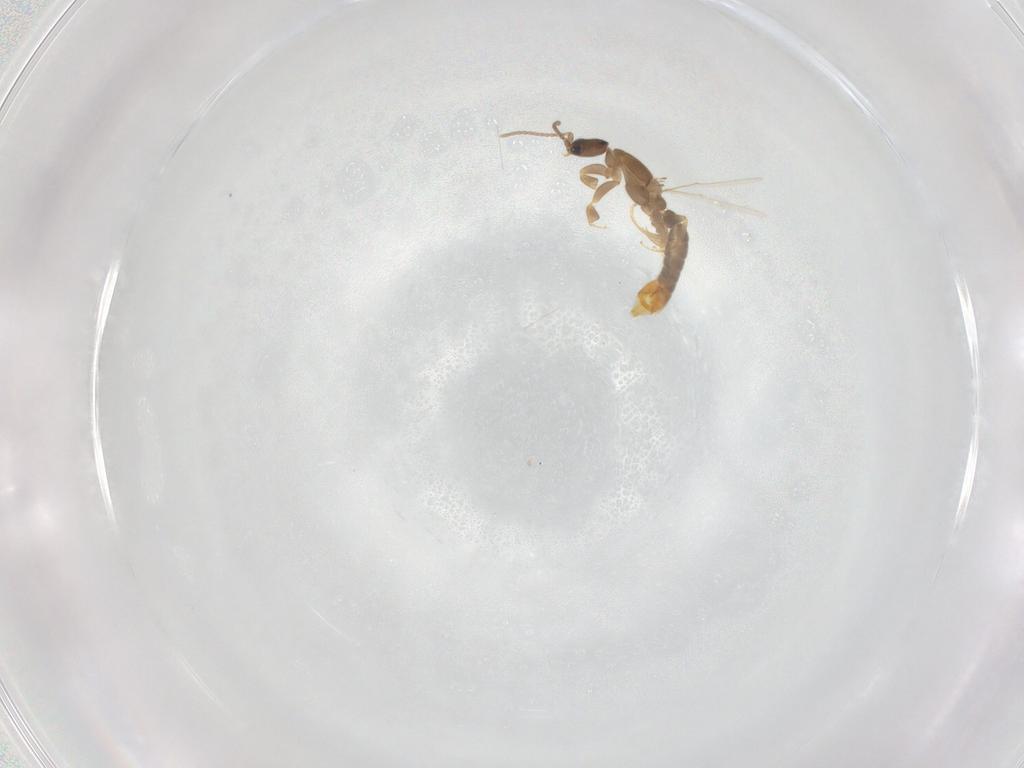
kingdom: Animalia
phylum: Arthropoda
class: Insecta
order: Hymenoptera
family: Formicidae
